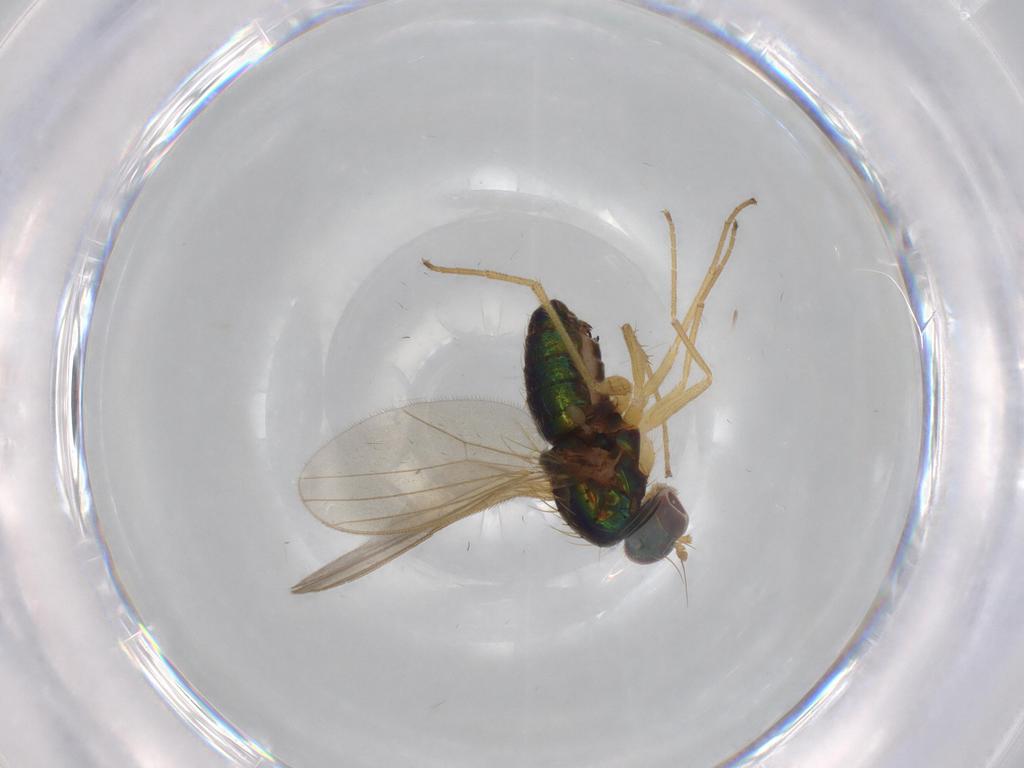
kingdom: Animalia
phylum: Arthropoda
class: Insecta
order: Diptera
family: Dolichopodidae
